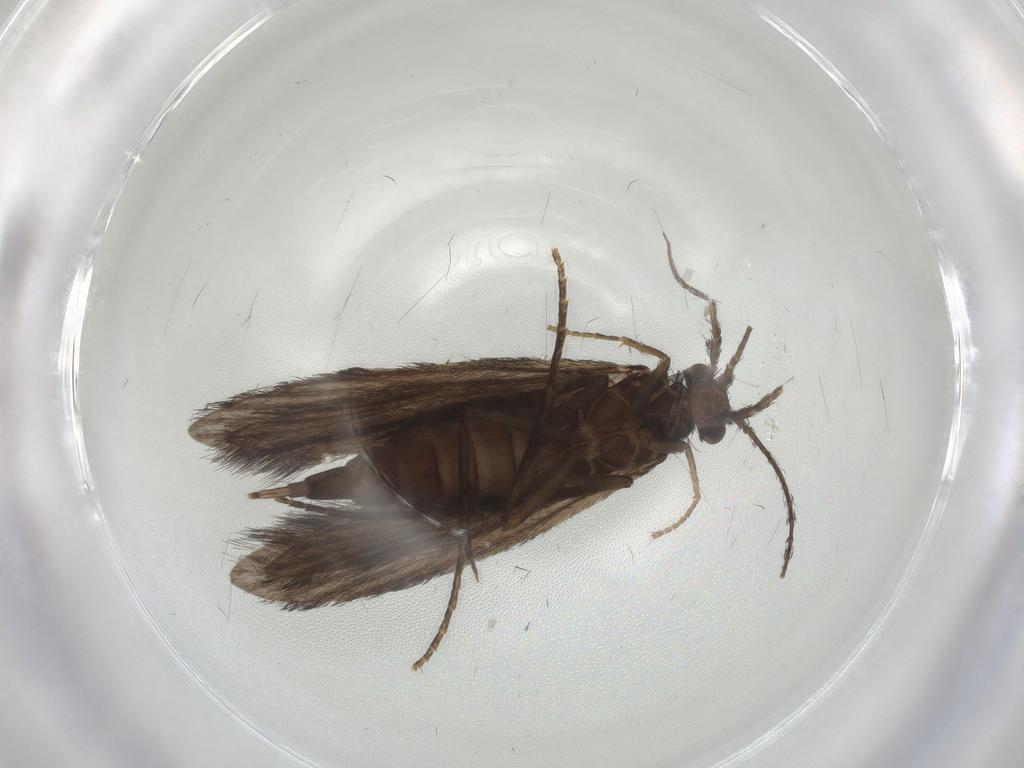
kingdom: Animalia
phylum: Arthropoda
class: Insecta
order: Trichoptera
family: Xiphocentronidae
